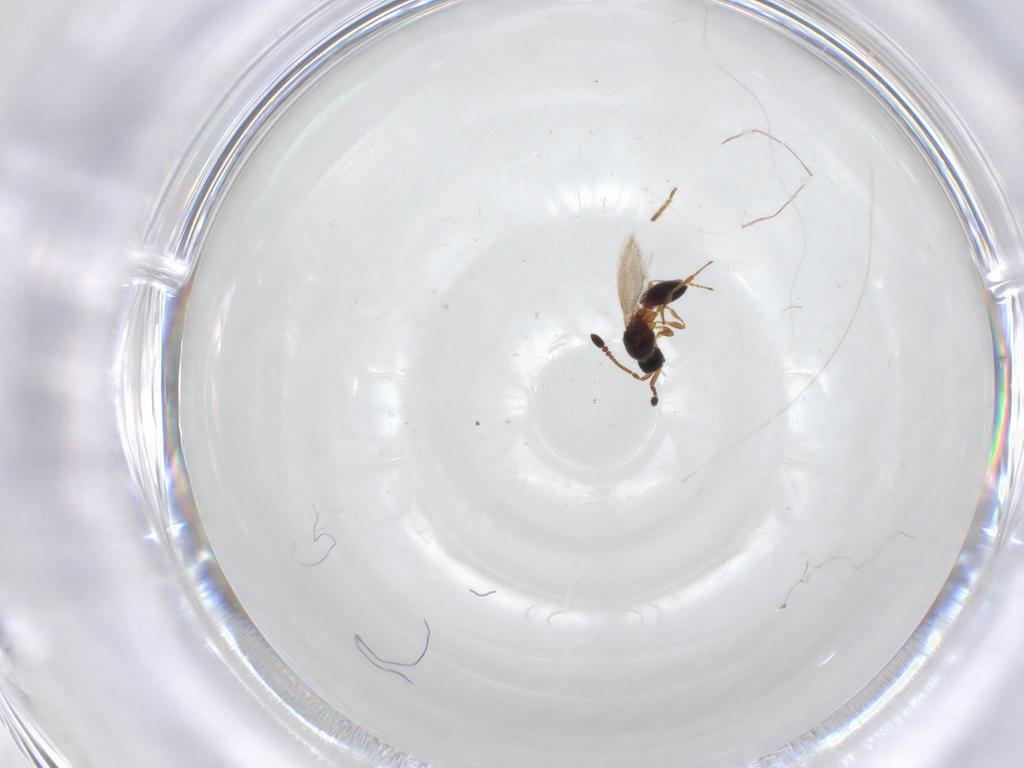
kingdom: Animalia
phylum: Arthropoda
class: Insecta
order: Hymenoptera
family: Diapriidae
